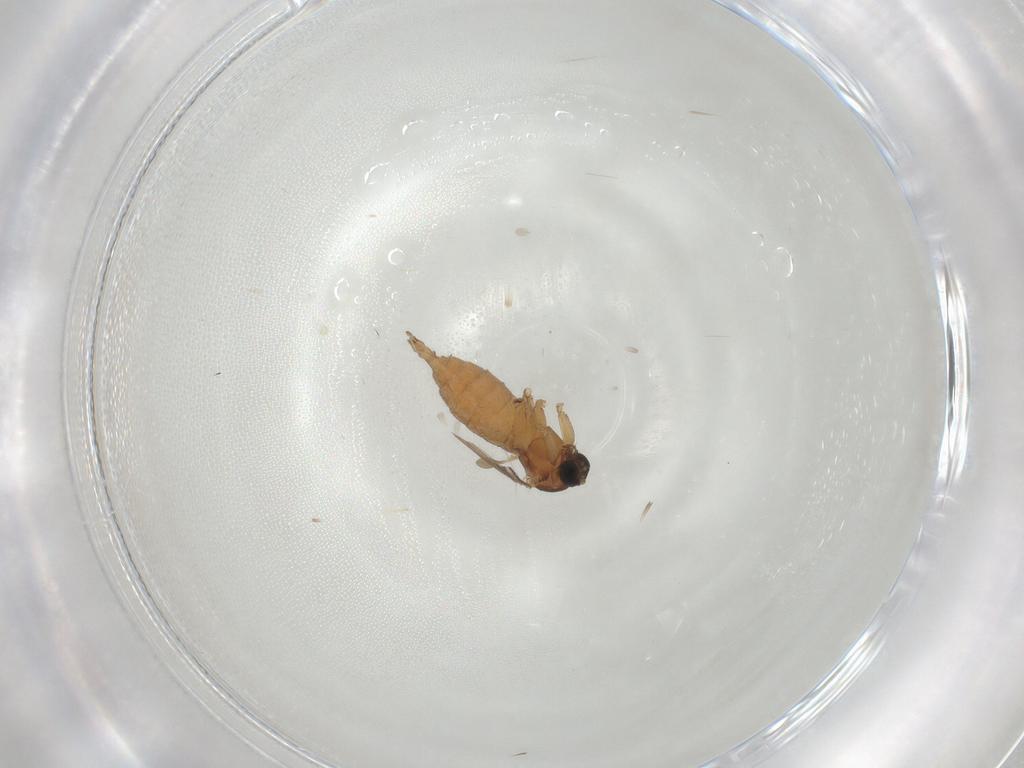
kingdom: Animalia
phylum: Arthropoda
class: Insecta
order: Diptera
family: Sciaridae
